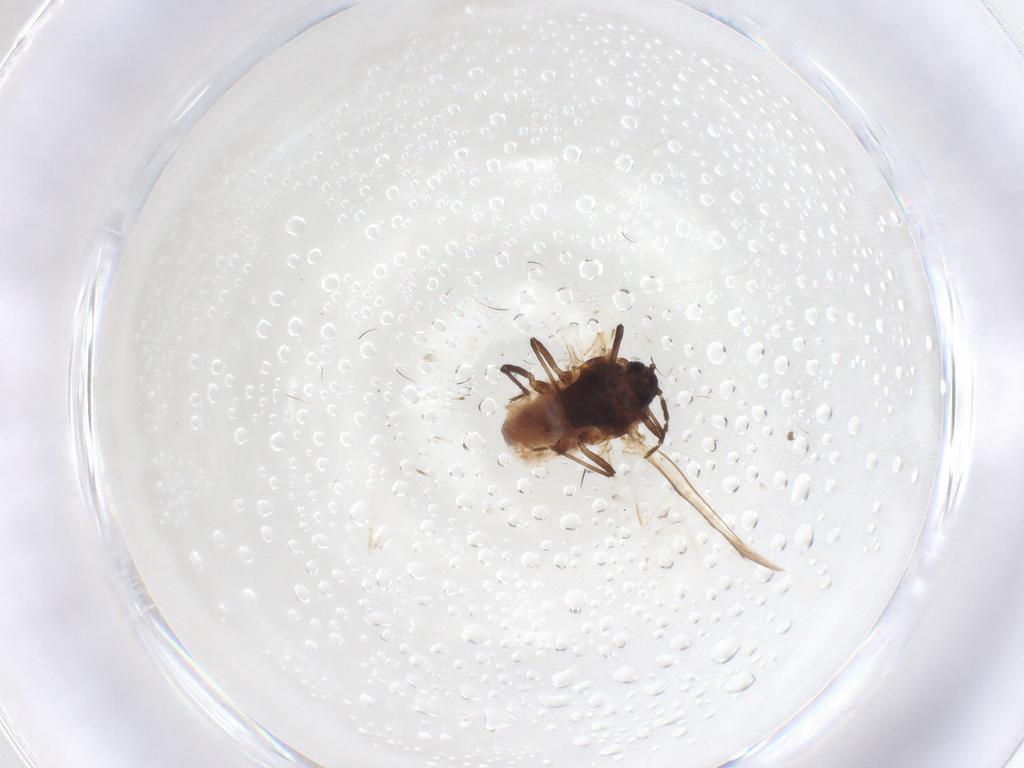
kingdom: Animalia
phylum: Arthropoda
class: Insecta
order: Hemiptera
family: Aphididae
